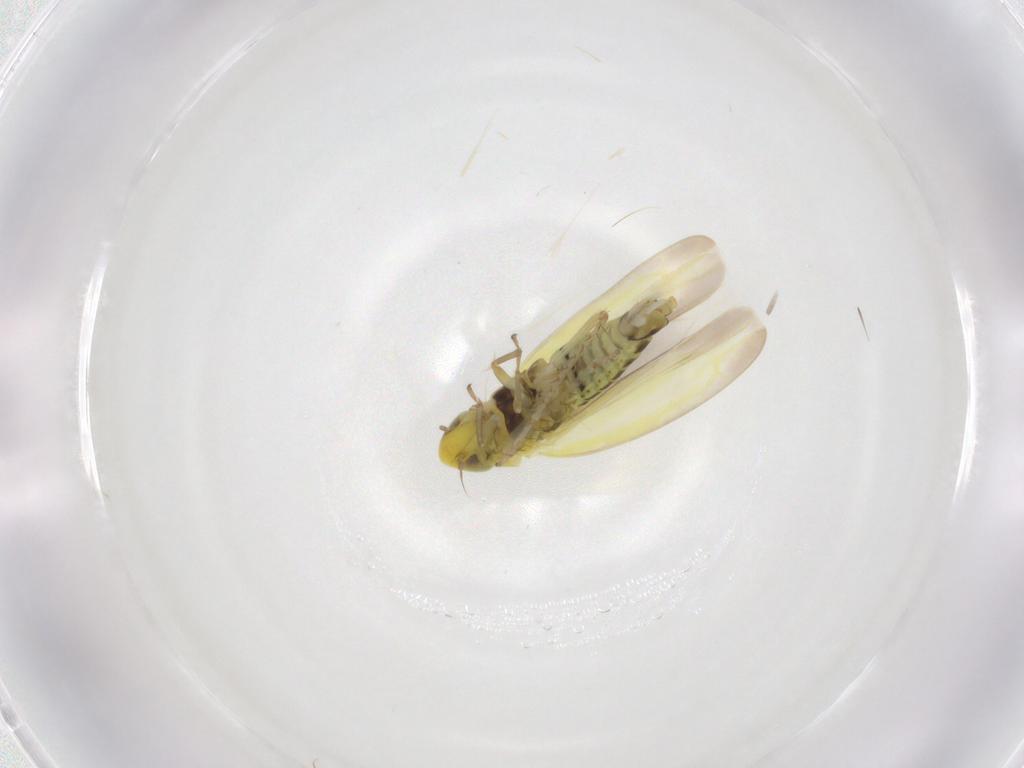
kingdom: Animalia
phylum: Arthropoda
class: Insecta
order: Hemiptera
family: Cicadellidae
